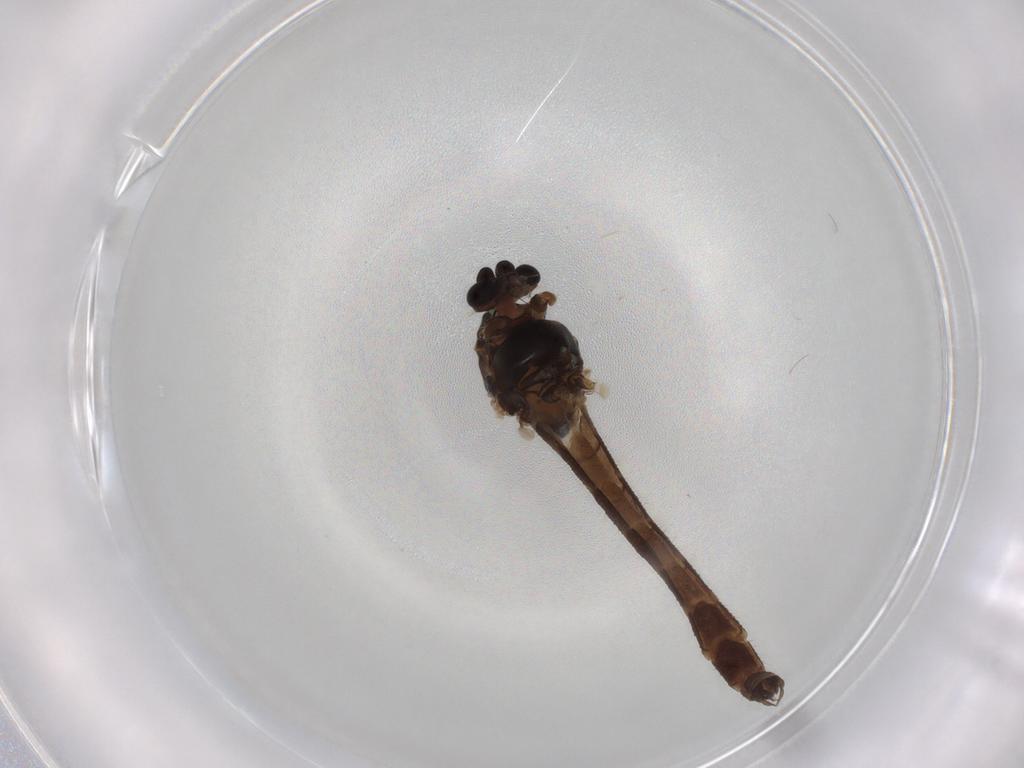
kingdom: Animalia
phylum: Arthropoda
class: Insecta
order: Diptera
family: Chironomidae
